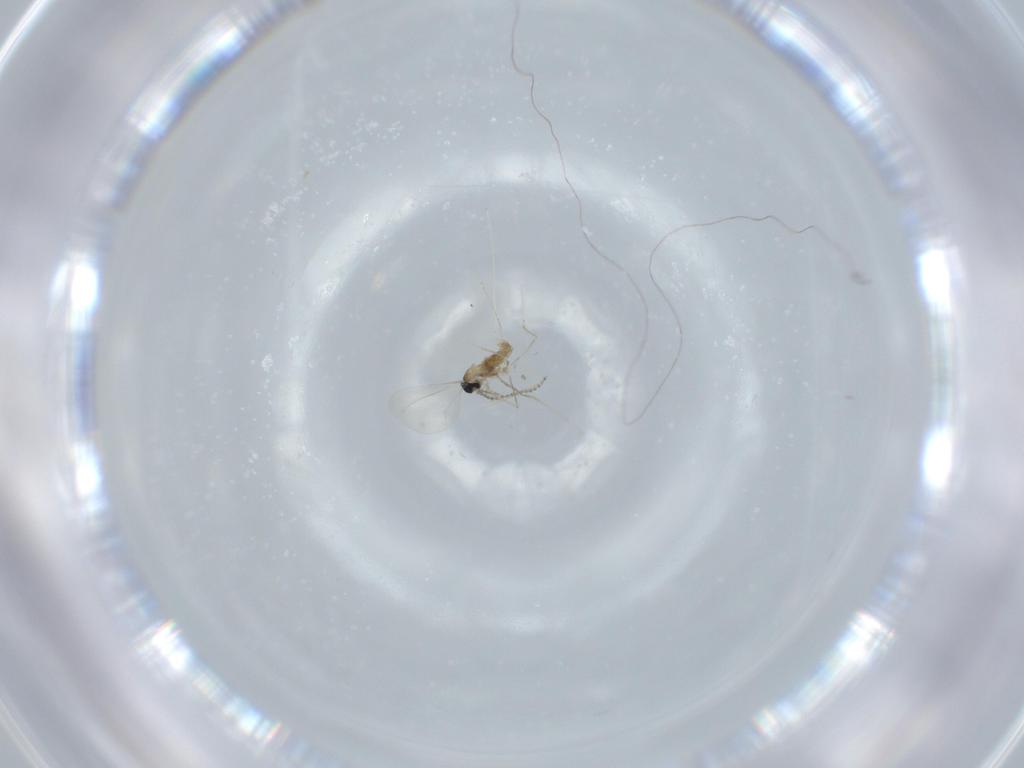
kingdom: Animalia
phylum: Arthropoda
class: Insecta
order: Diptera
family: Cecidomyiidae
